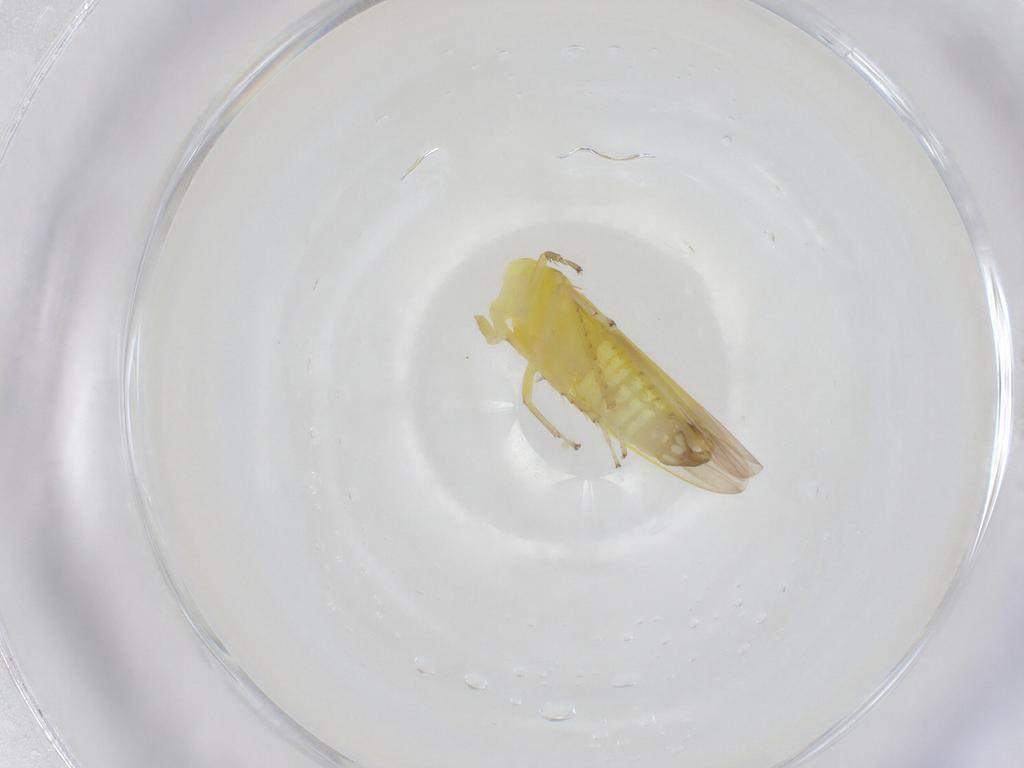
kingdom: Animalia
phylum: Arthropoda
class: Insecta
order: Hemiptera
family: Cicadellidae
